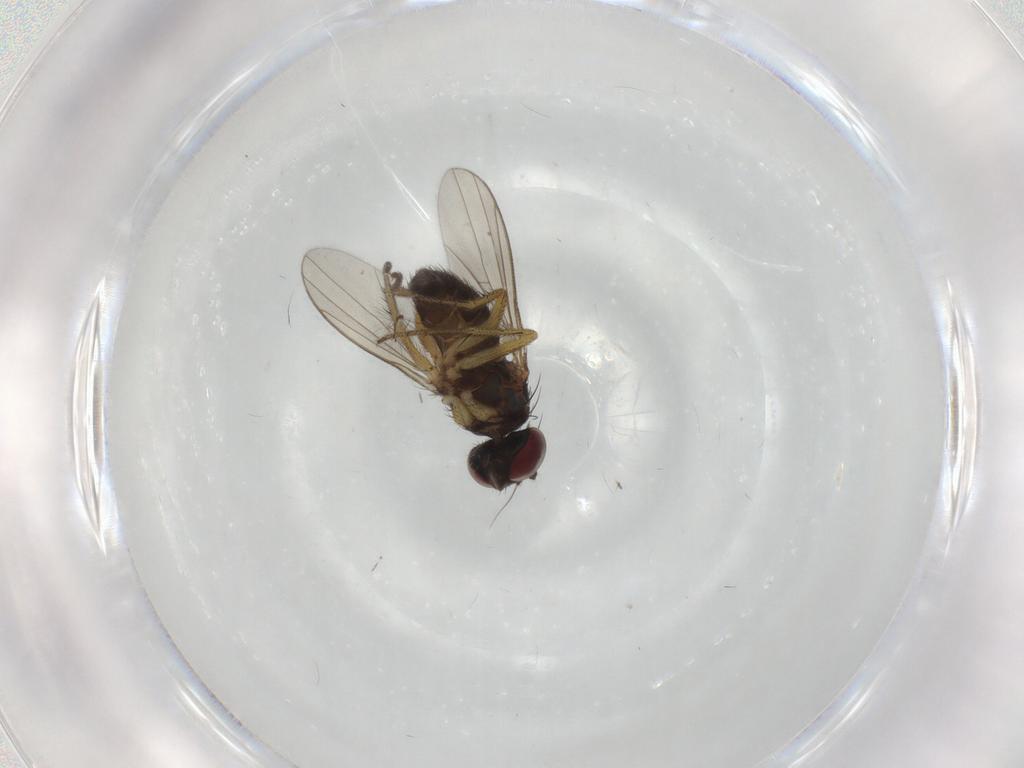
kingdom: Animalia
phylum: Arthropoda
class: Insecta
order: Diptera
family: Dolichopodidae
